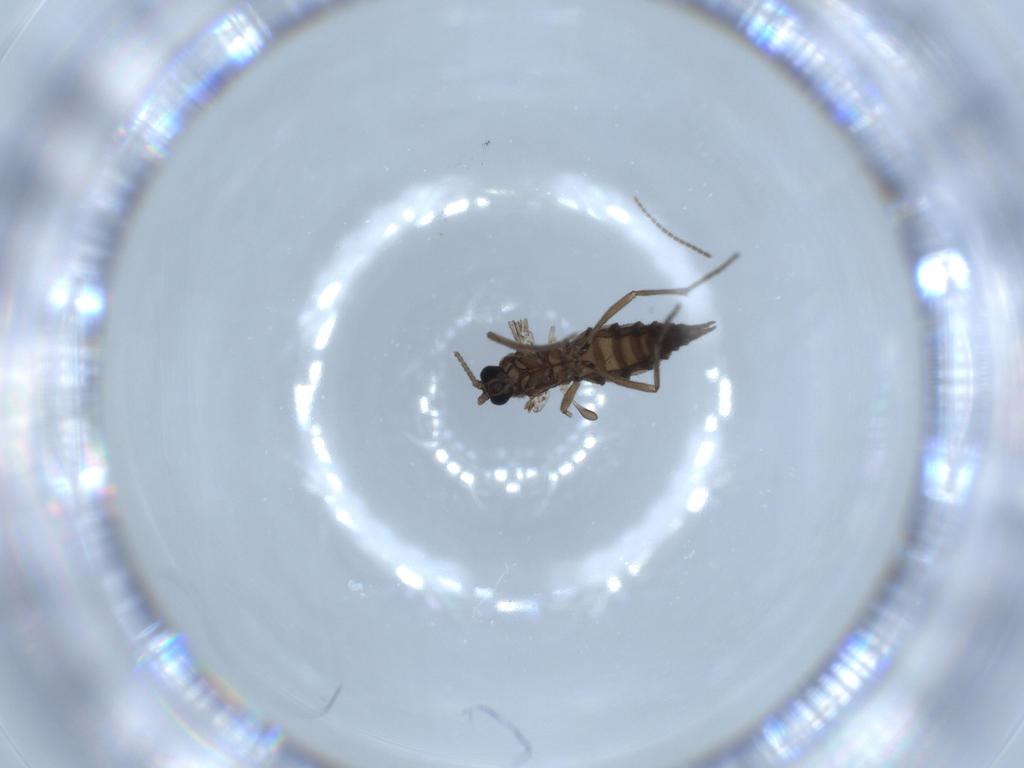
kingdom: Animalia
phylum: Arthropoda
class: Insecta
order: Diptera
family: Sciaridae
